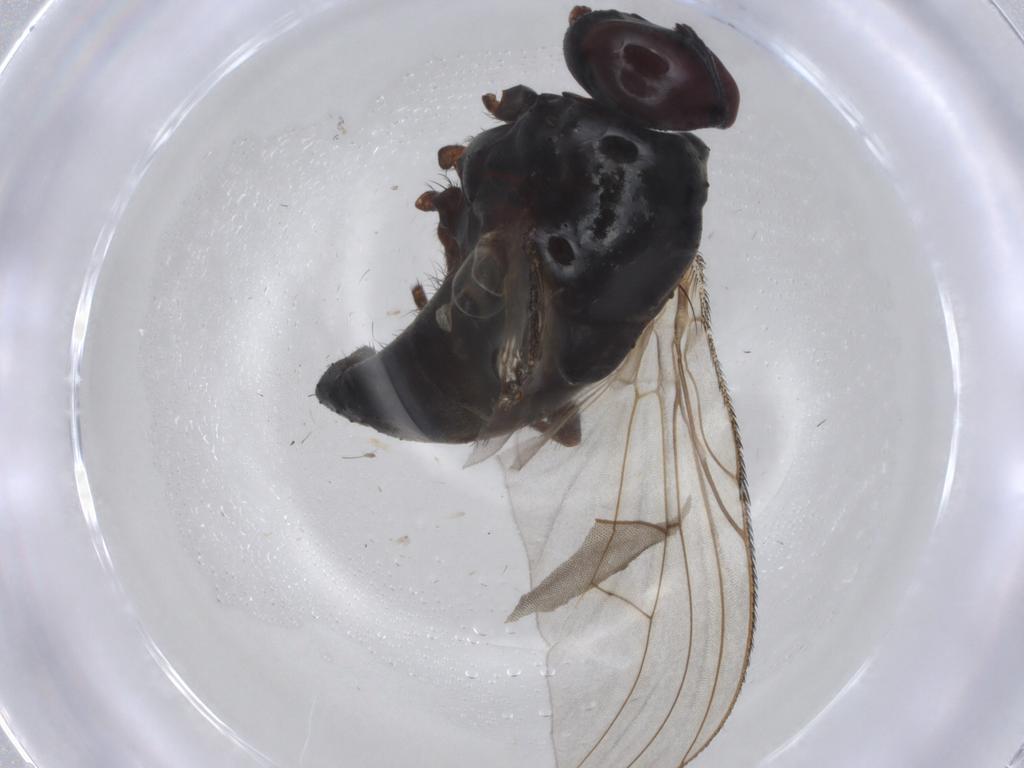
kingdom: Animalia
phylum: Arthropoda
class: Insecta
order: Diptera
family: Muscidae
